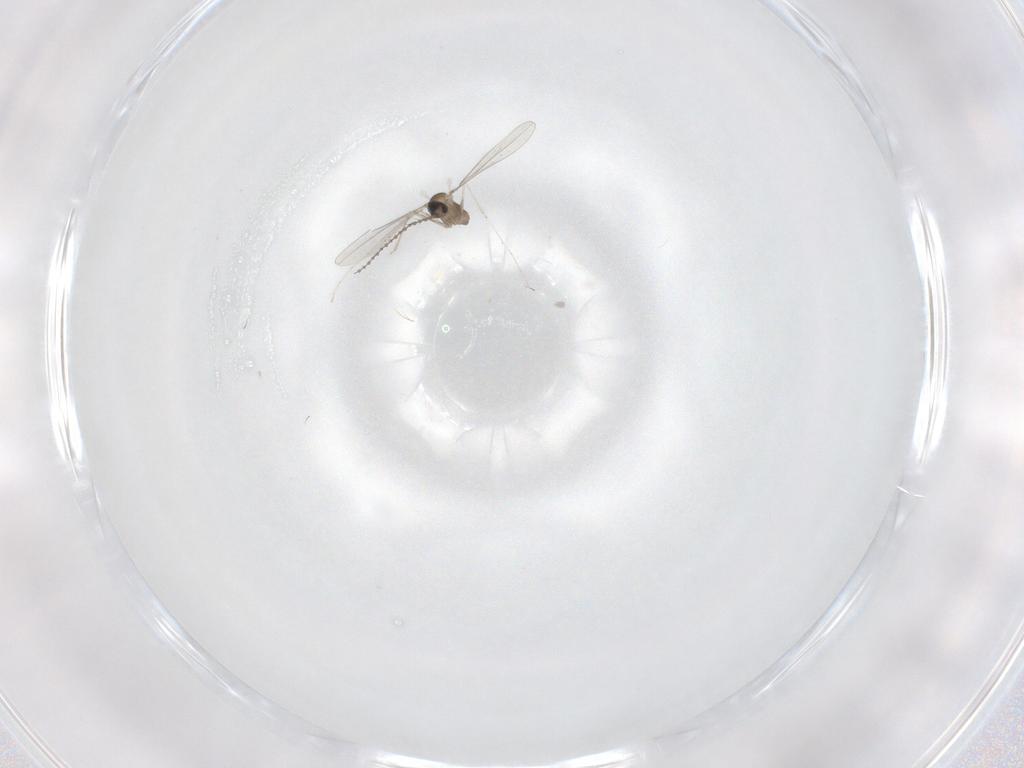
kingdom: Animalia
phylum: Arthropoda
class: Insecta
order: Diptera
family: Cecidomyiidae
